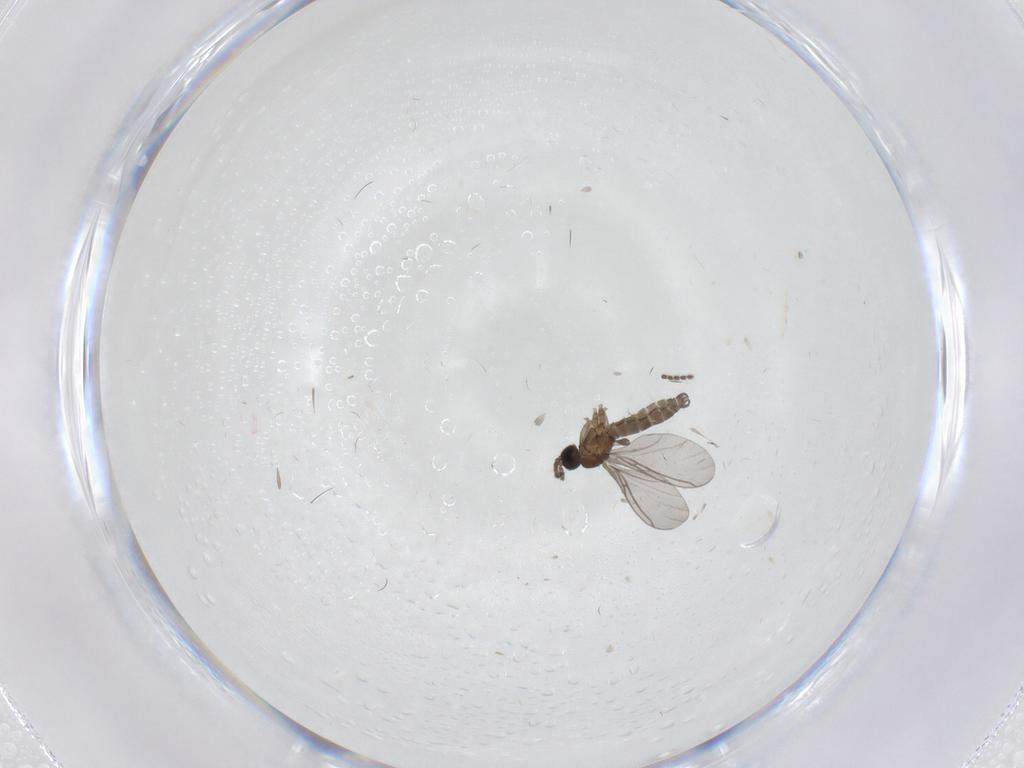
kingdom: Animalia
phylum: Arthropoda
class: Insecta
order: Diptera
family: Sciaridae
